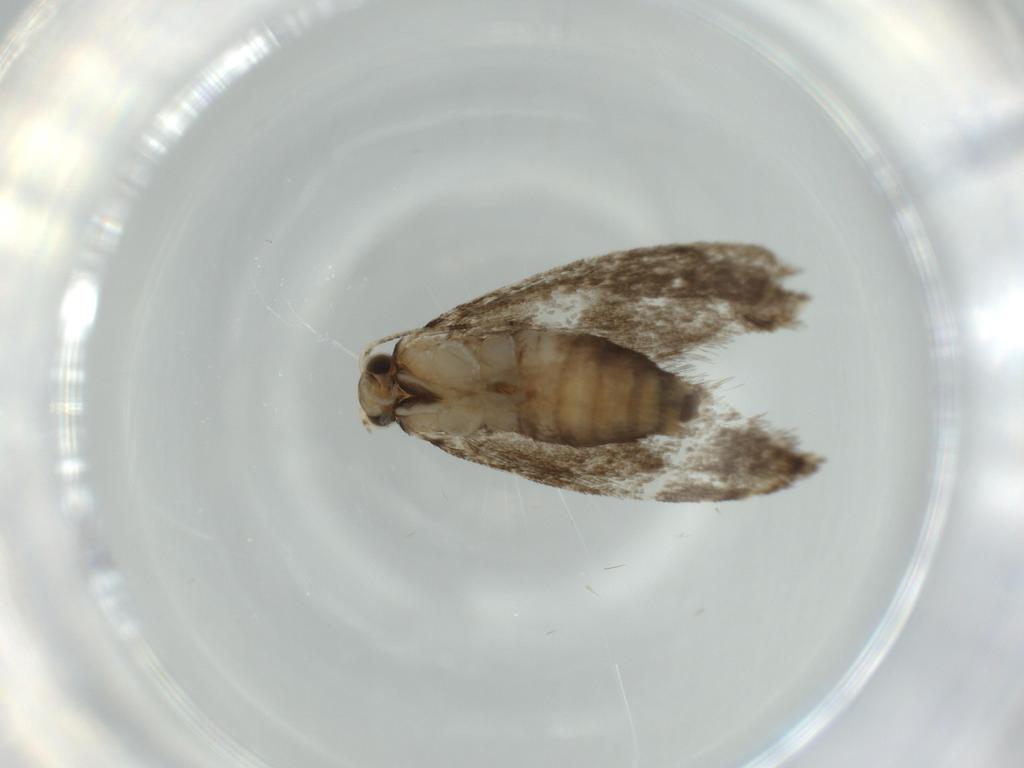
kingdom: Animalia
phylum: Arthropoda
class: Insecta
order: Lepidoptera
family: Tineidae
